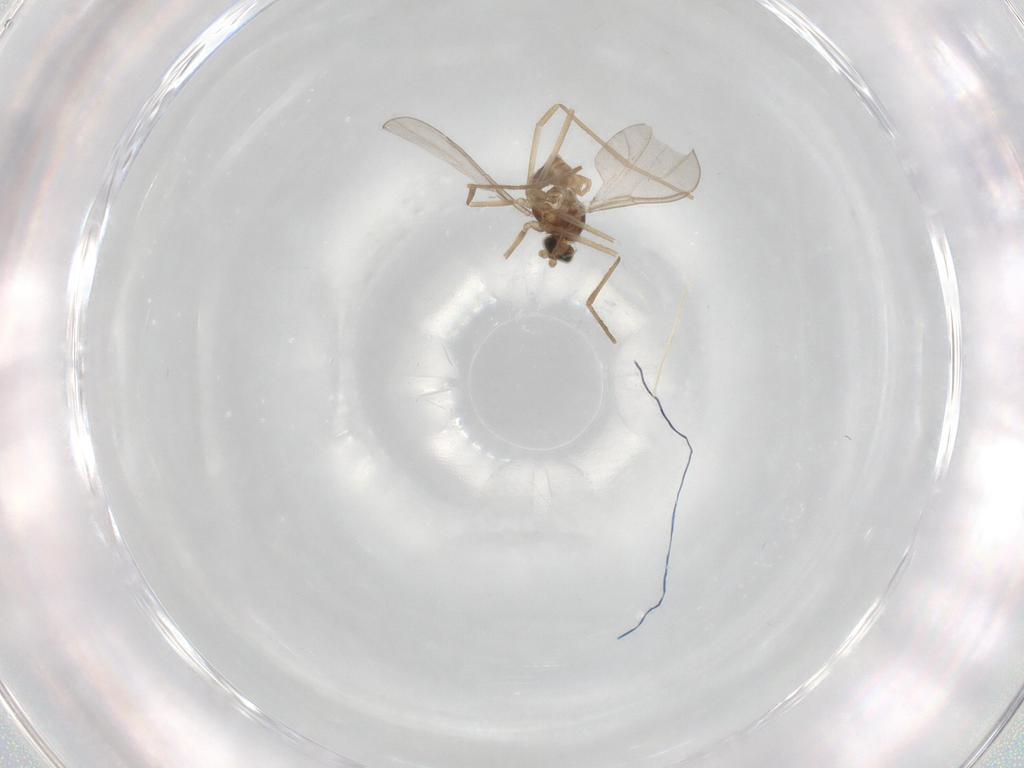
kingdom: Animalia
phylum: Arthropoda
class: Insecta
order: Diptera
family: Cecidomyiidae
